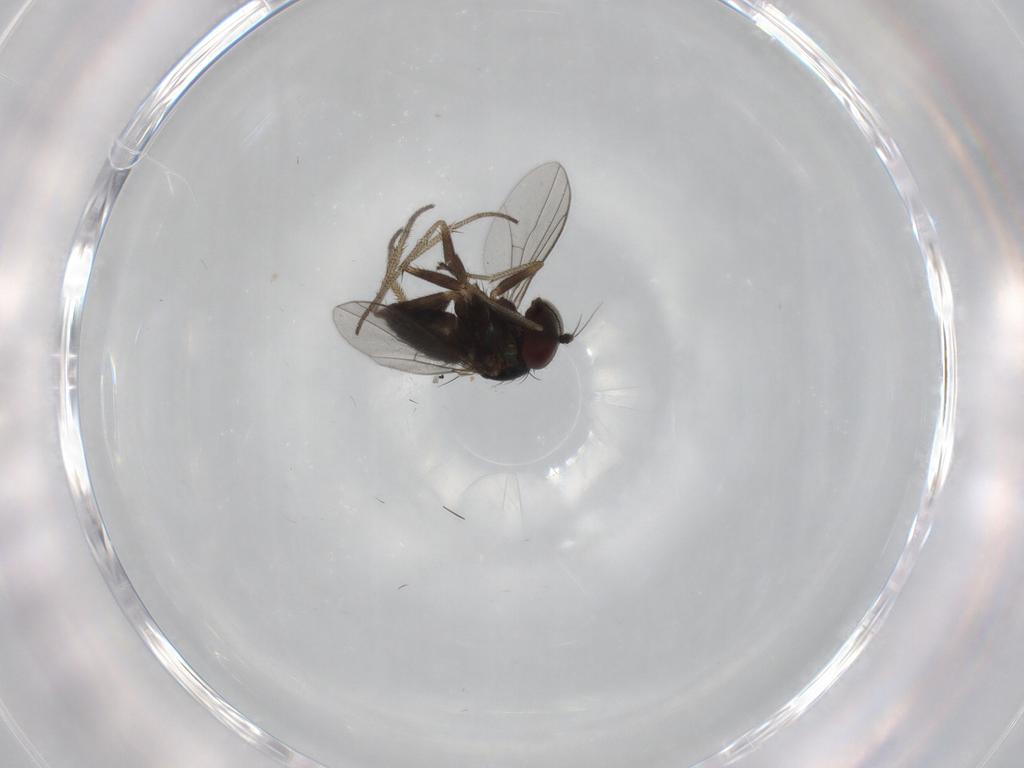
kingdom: Animalia
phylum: Arthropoda
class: Insecta
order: Diptera
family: Dolichopodidae
